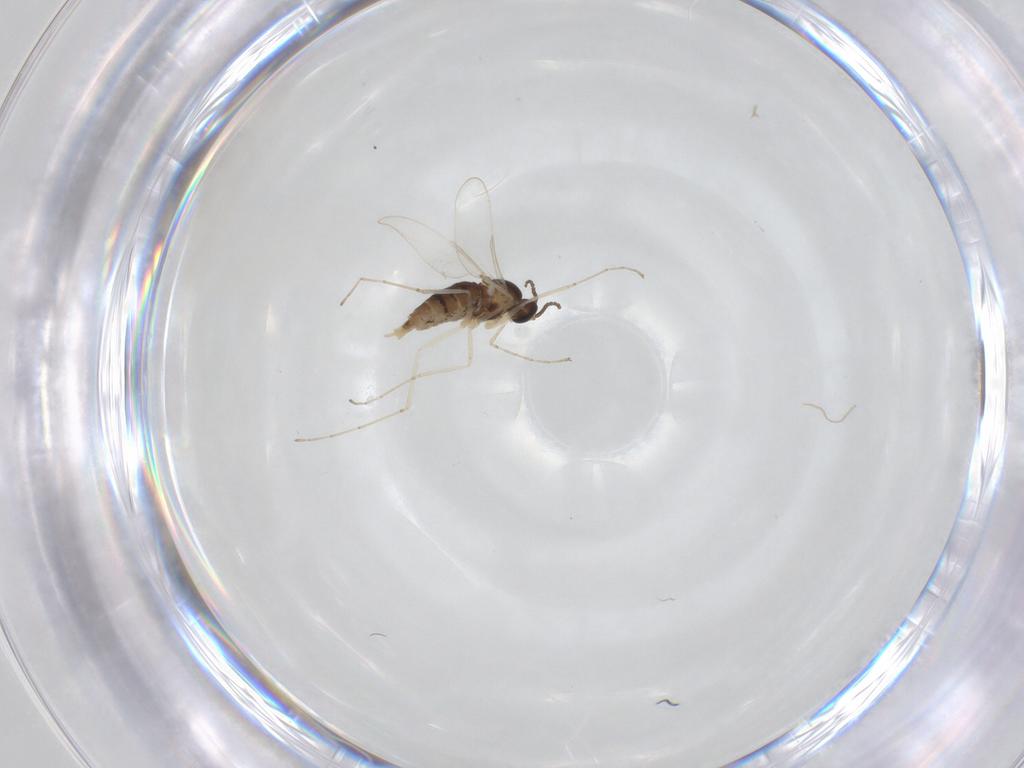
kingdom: Animalia
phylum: Arthropoda
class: Insecta
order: Diptera
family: Cecidomyiidae
